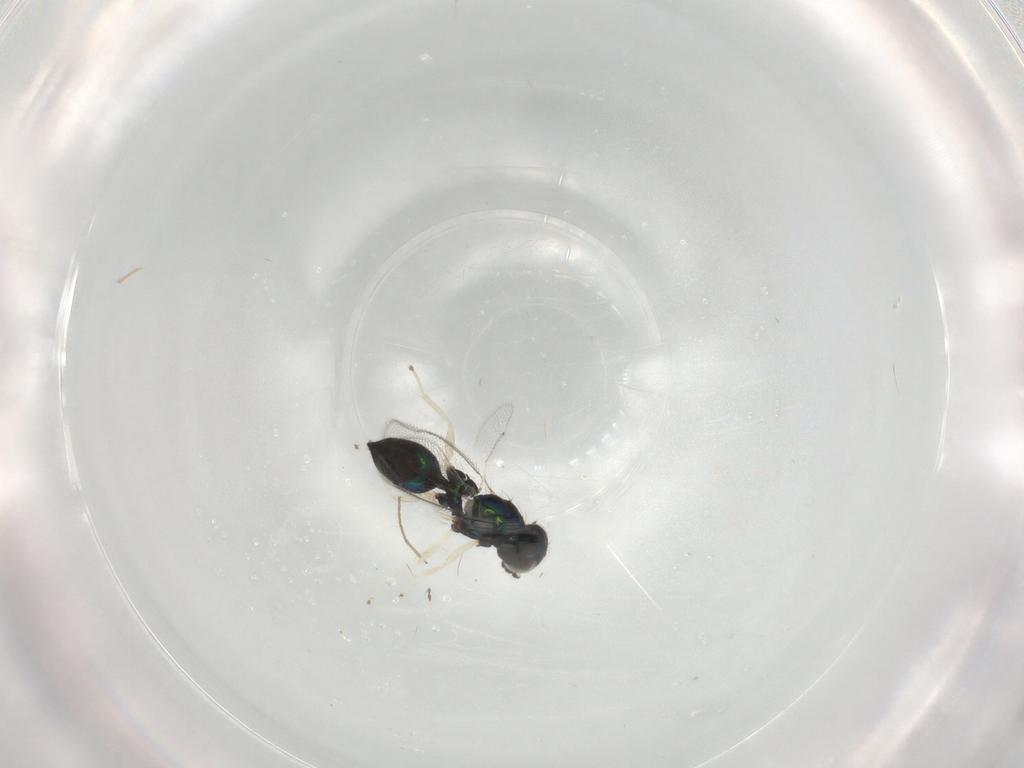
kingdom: Animalia
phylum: Arthropoda
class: Insecta
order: Hymenoptera
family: Eulophidae
